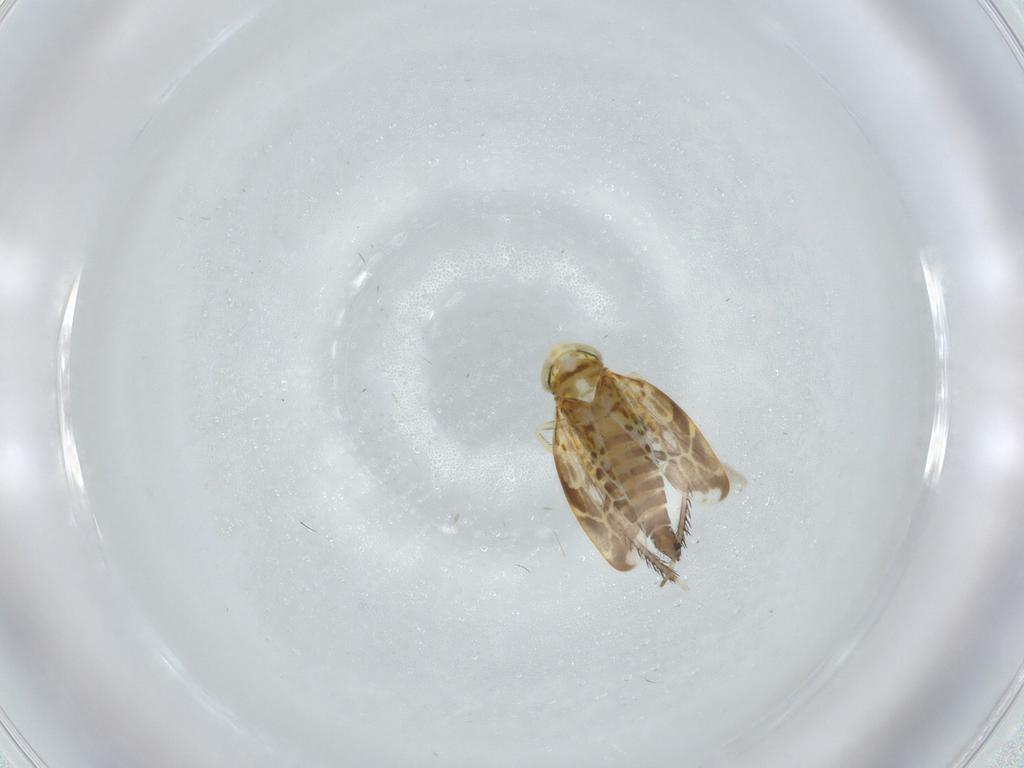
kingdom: Animalia
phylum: Arthropoda
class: Insecta
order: Hemiptera
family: Cicadellidae
